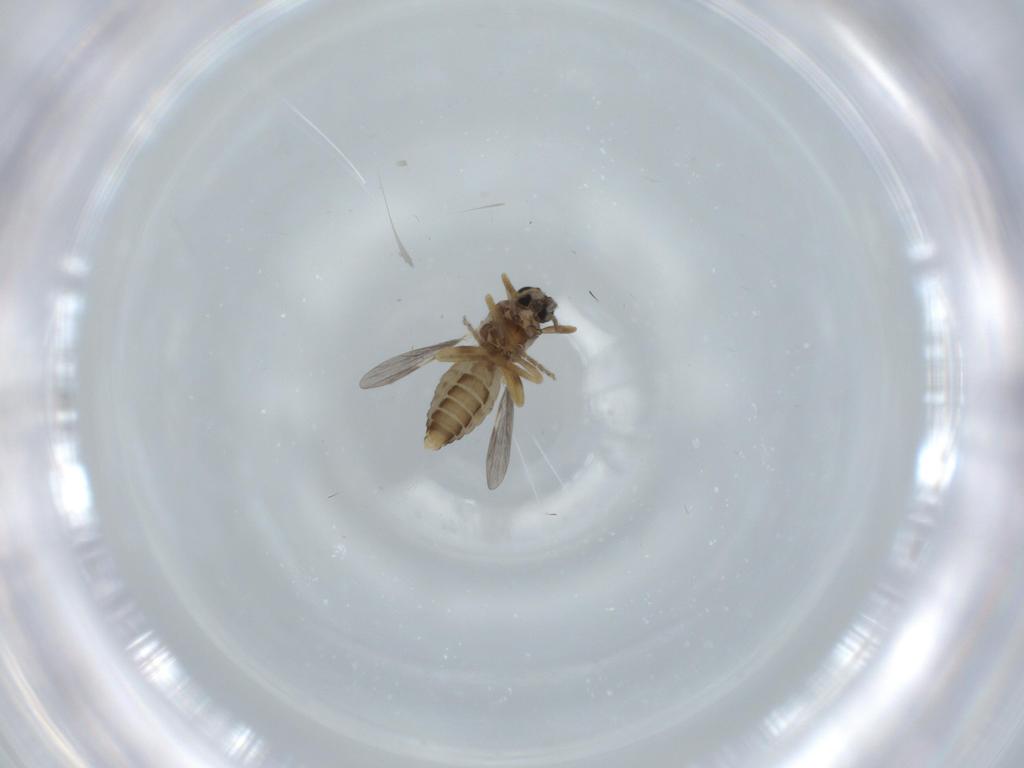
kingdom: Animalia
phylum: Arthropoda
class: Insecta
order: Diptera
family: Ceratopogonidae
